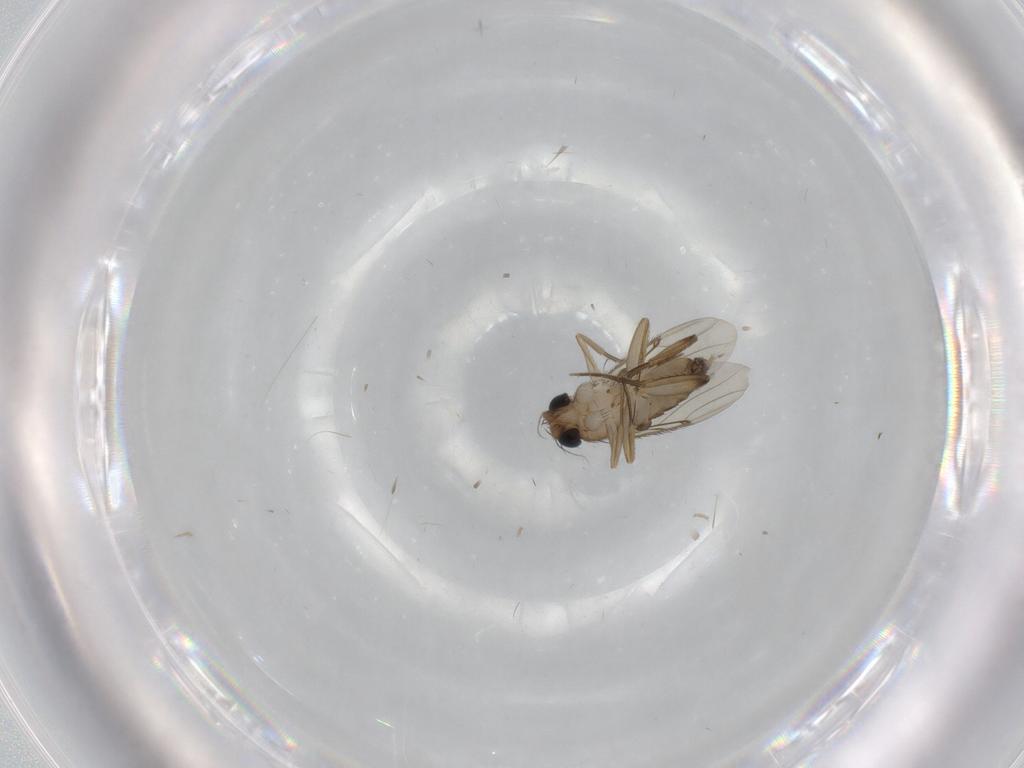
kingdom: Animalia
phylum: Arthropoda
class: Insecta
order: Diptera
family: Phoridae
